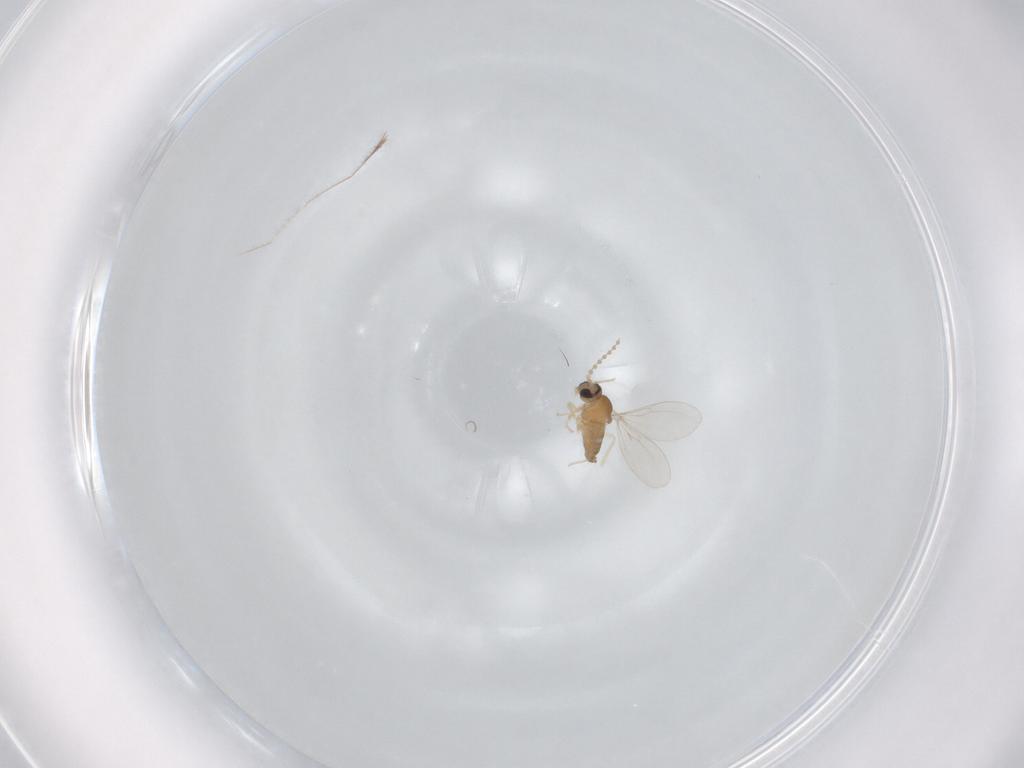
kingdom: Animalia
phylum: Arthropoda
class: Insecta
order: Diptera
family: Cecidomyiidae
